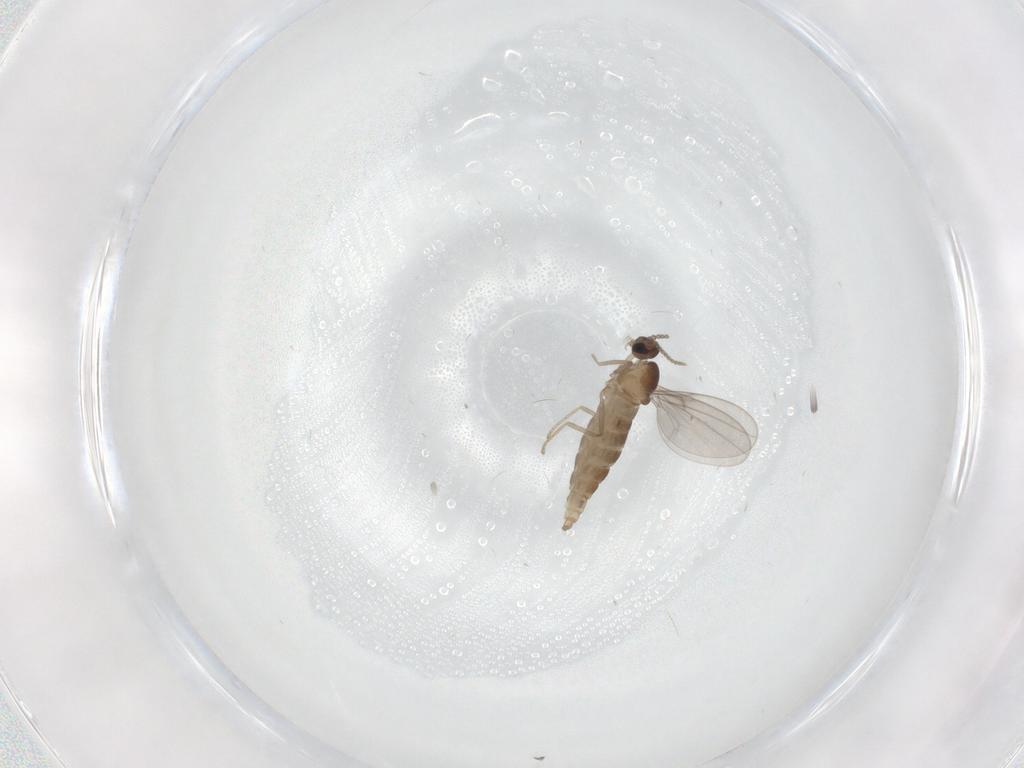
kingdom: Animalia
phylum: Arthropoda
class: Insecta
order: Diptera
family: Cecidomyiidae
